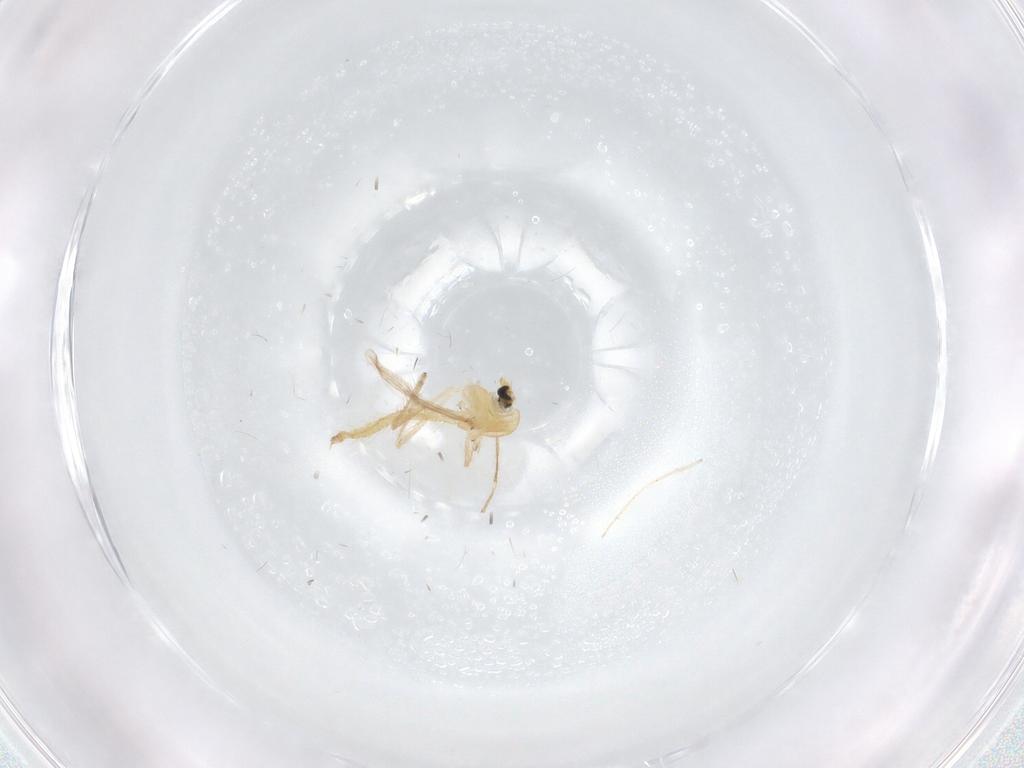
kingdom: Animalia
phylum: Arthropoda
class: Insecta
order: Diptera
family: Chironomidae
